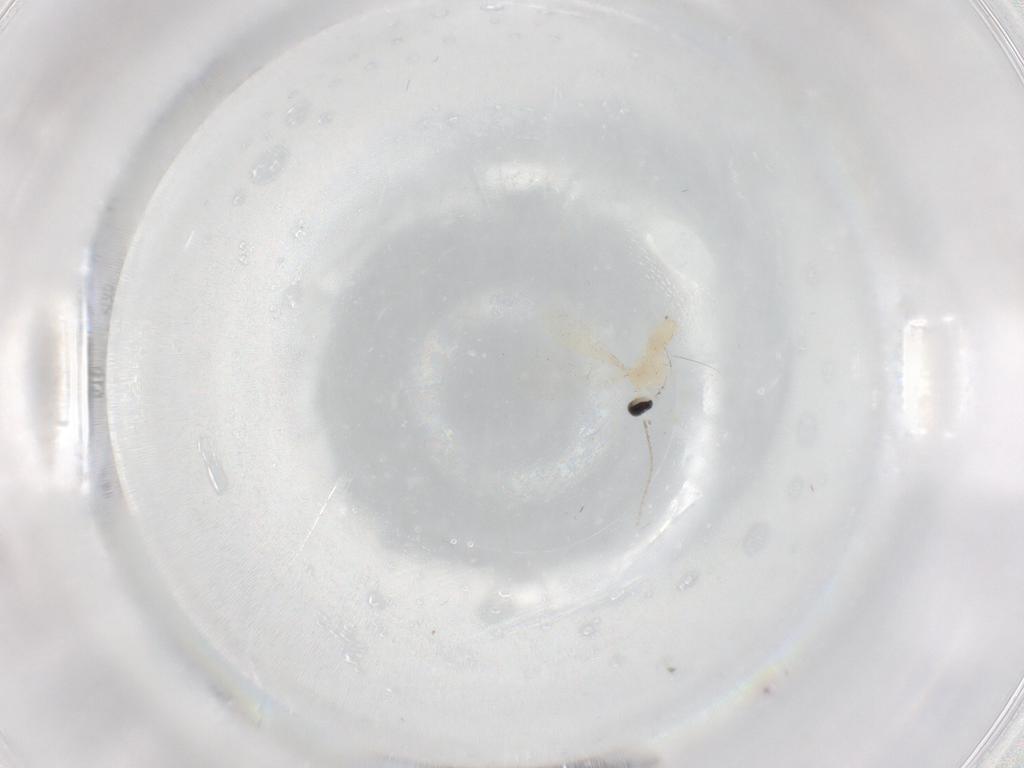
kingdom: Animalia
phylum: Arthropoda
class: Insecta
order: Diptera
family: Cecidomyiidae
